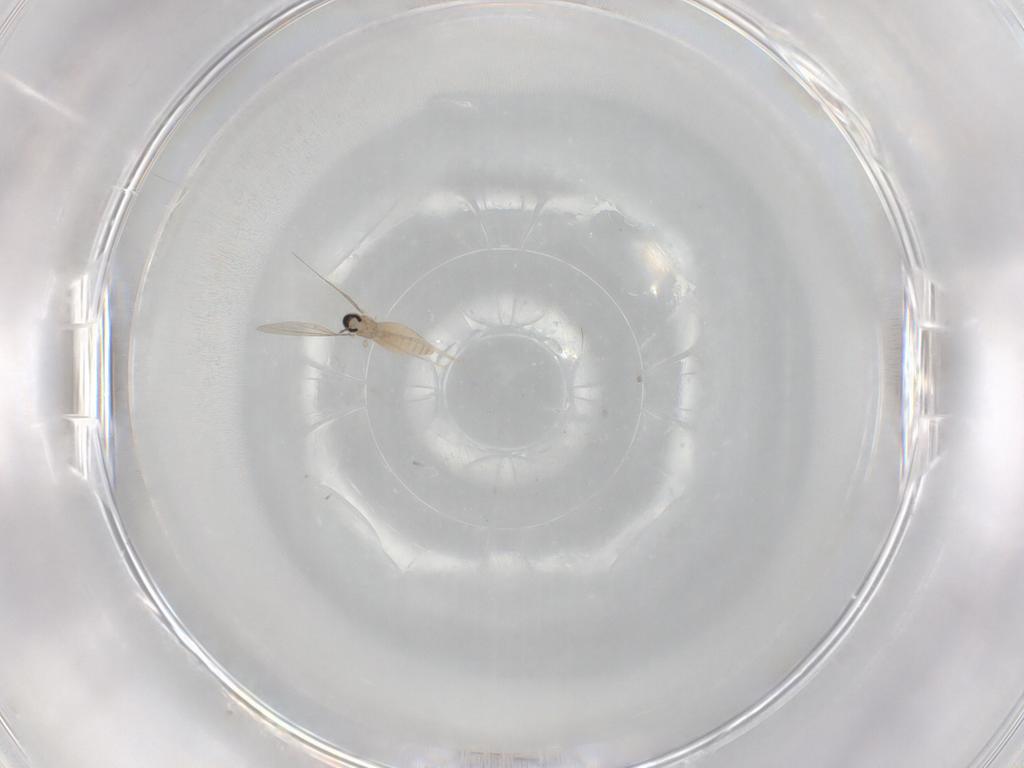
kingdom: Animalia
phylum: Arthropoda
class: Insecta
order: Diptera
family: Cecidomyiidae
